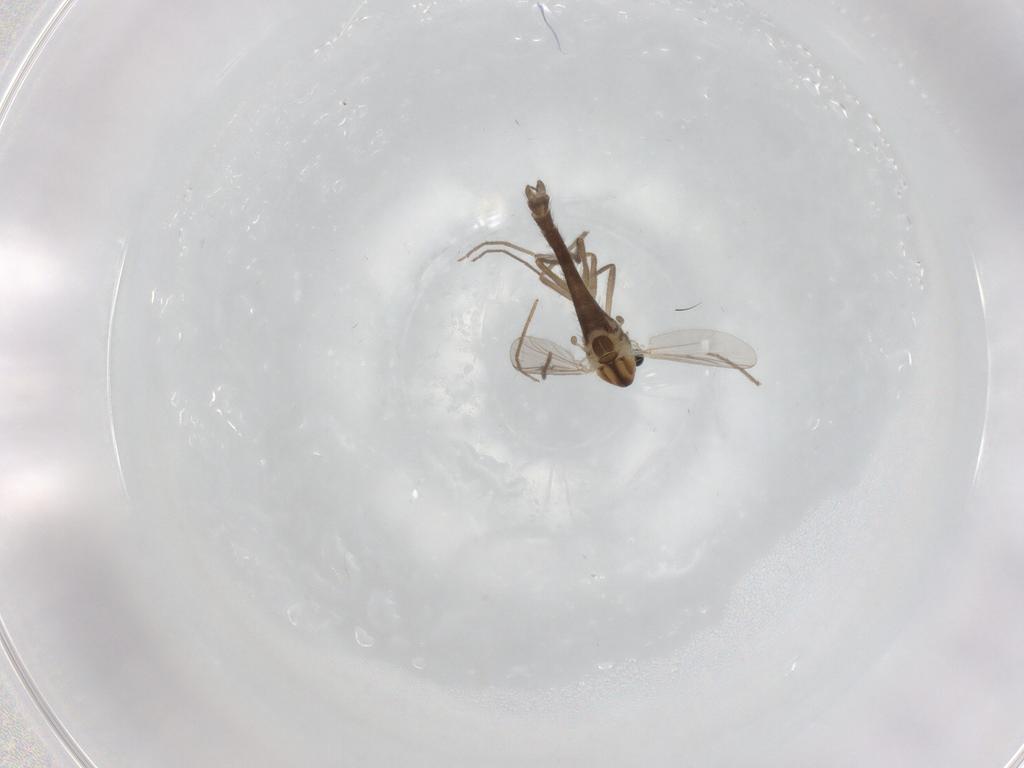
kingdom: Animalia
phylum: Arthropoda
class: Insecta
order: Diptera
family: Chironomidae
